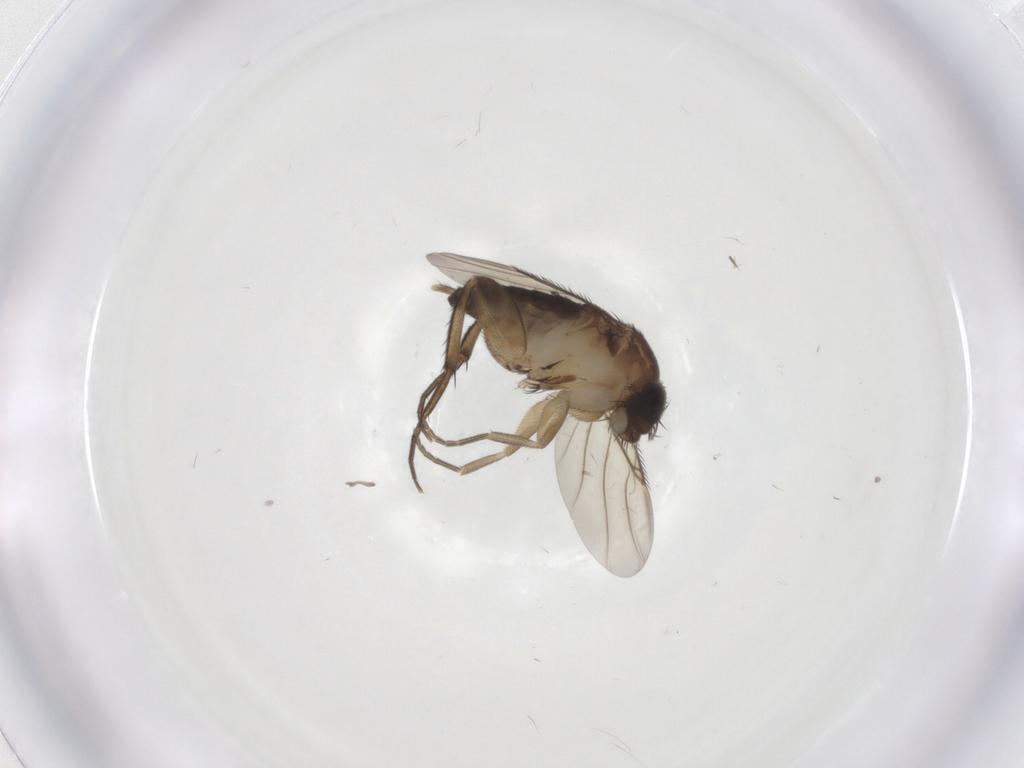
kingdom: Animalia
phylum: Arthropoda
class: Insecta
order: Diptera
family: Phoridae
